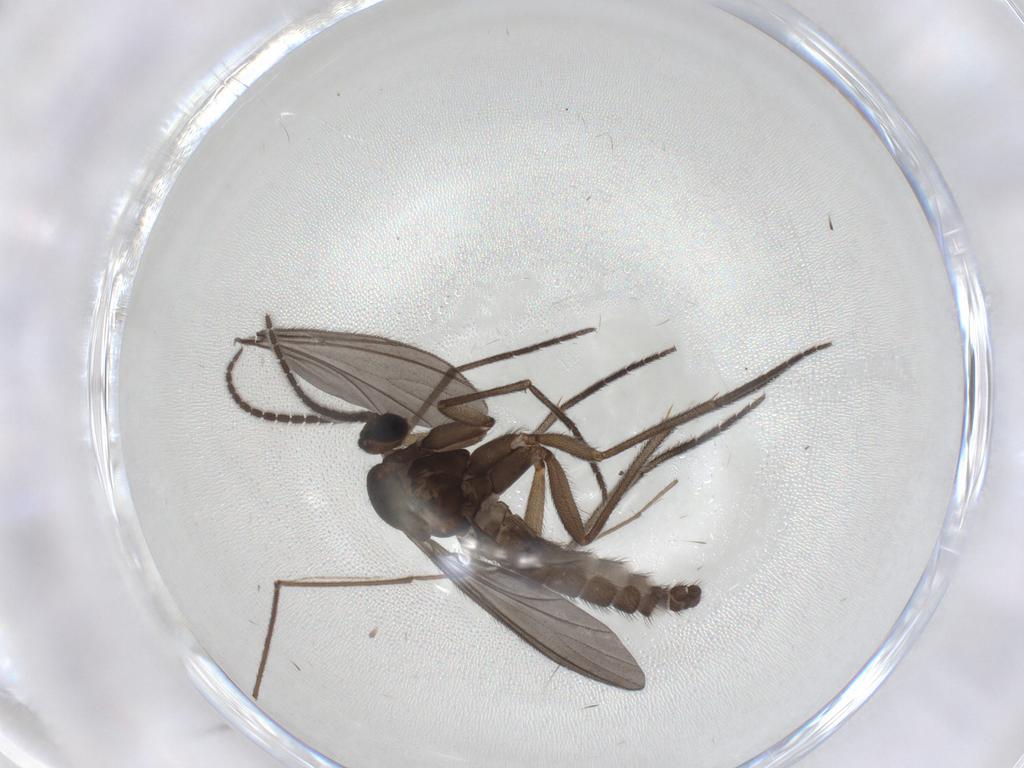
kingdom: Animalia
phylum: Arthropoda
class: Insecta
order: Diptera
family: Sciaridae
